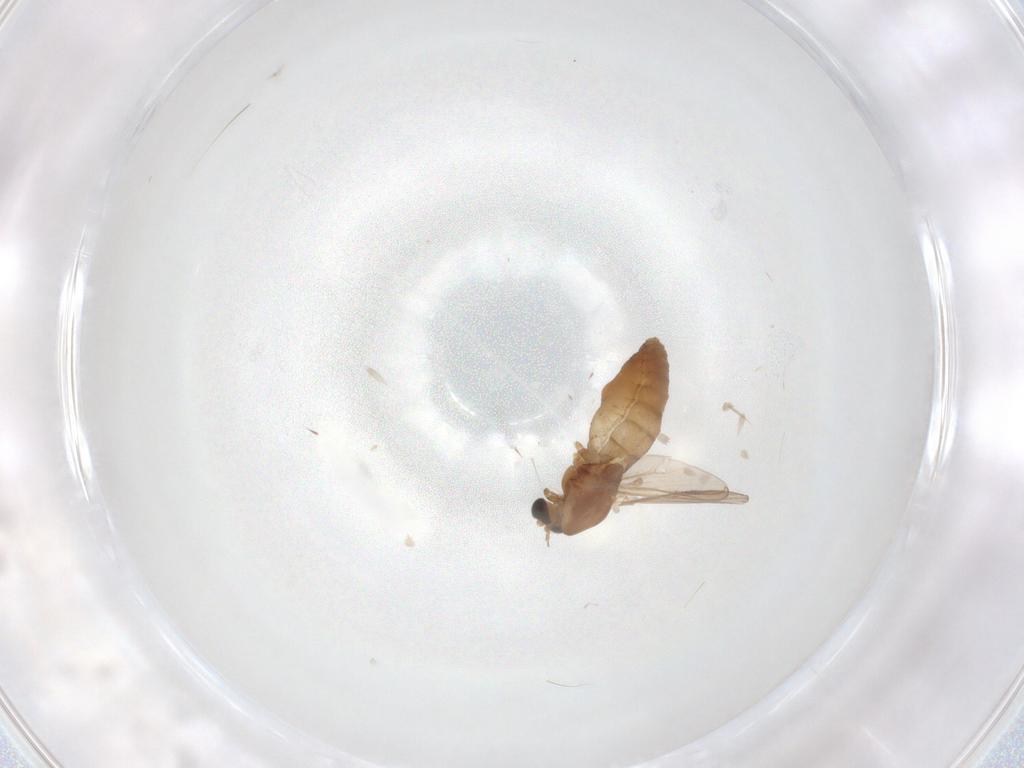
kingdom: Animalia
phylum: Arthropoda
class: Insecta
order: Diptera
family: Chironomidae
